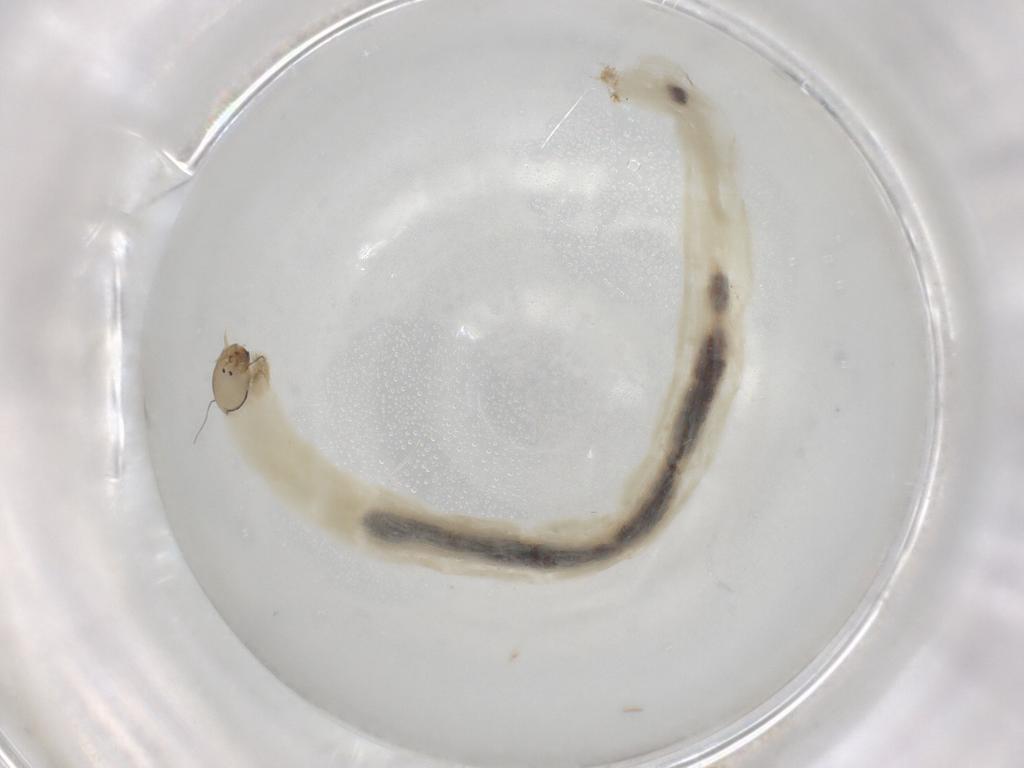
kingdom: Animalia
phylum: Arthropoda
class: Insecta
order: Diptera
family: Chironomidae
